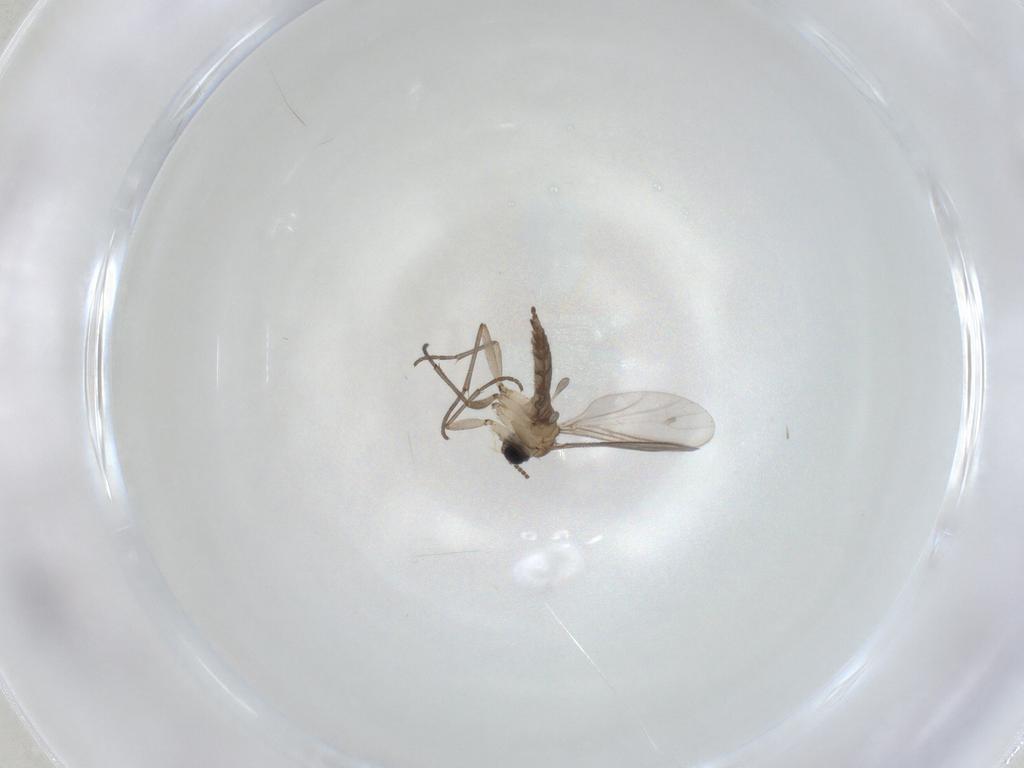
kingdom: Animalia
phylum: Arthropoda
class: Insecta
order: Diptera
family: Sciaridae
